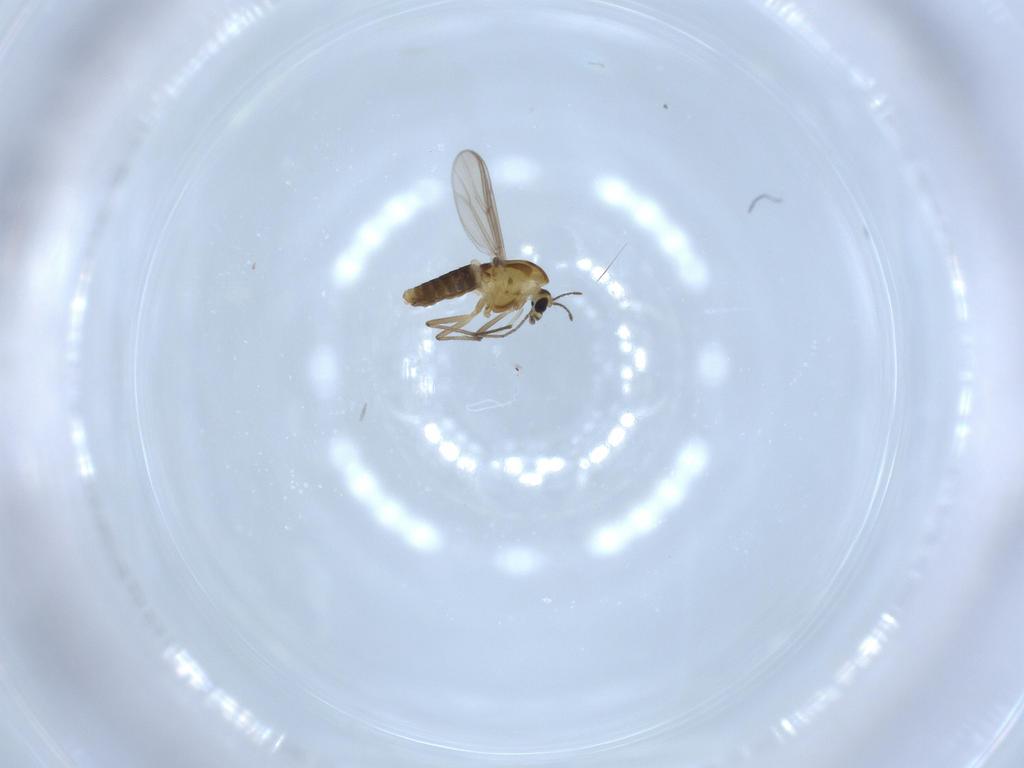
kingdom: Animalia
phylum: Arthropoda
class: Insecta
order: Diptera
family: Chironomidae
